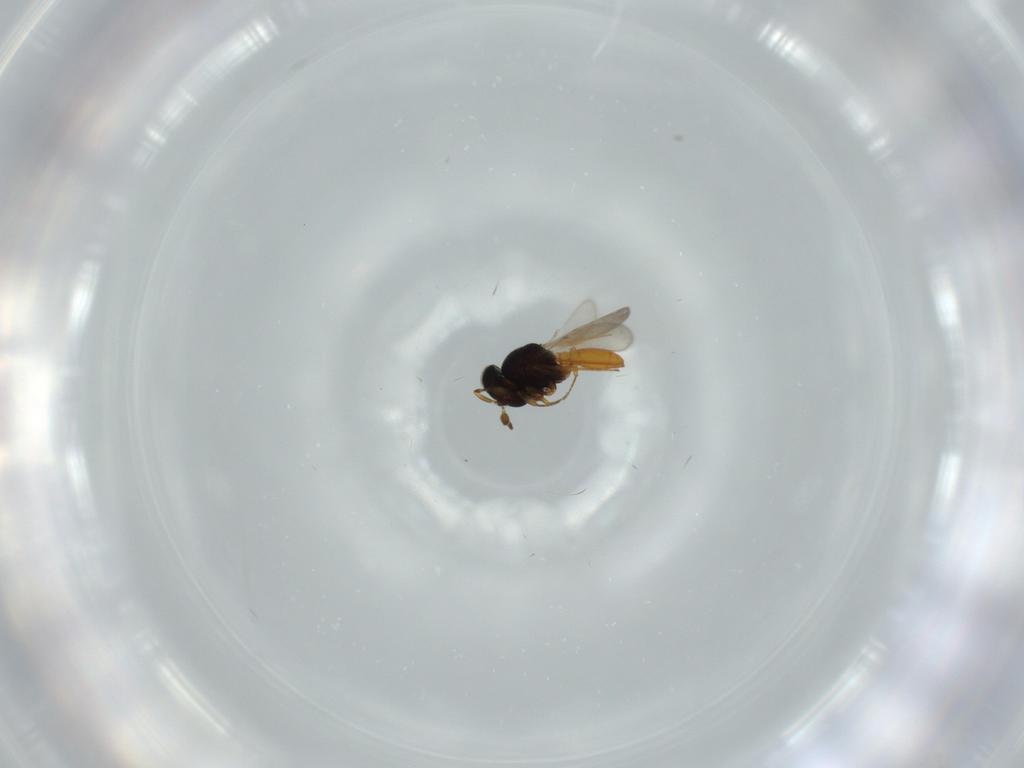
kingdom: Animalia
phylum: Arthropoda
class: Insecta
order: Hymenoptera
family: Scelionidae
